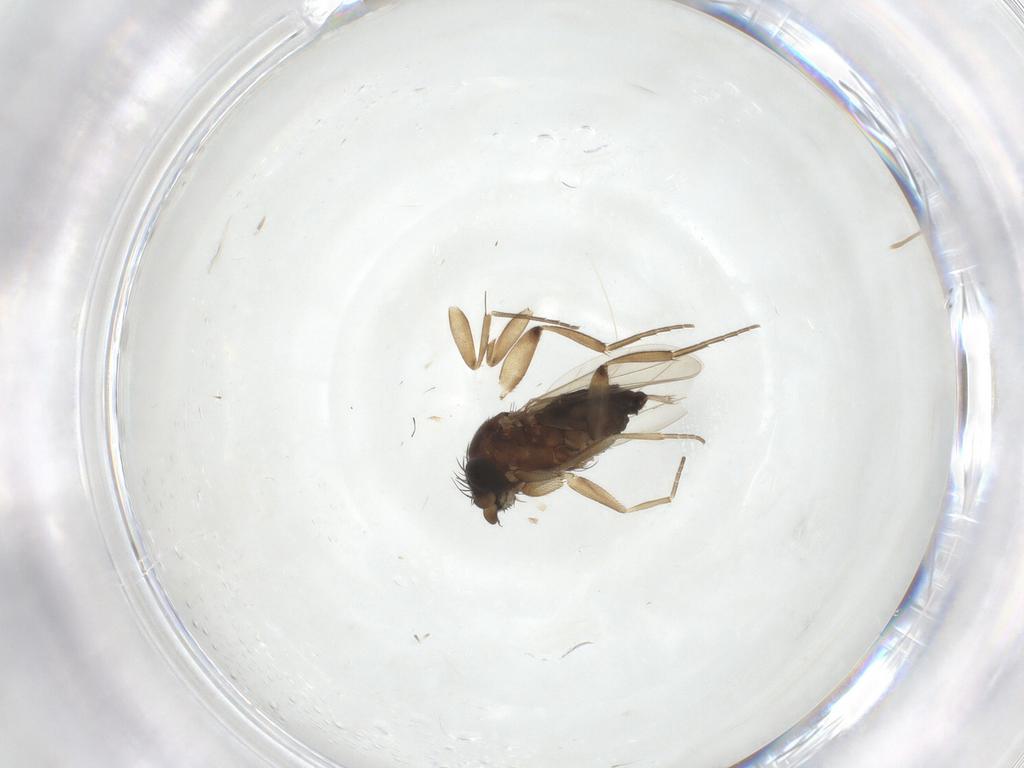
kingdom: Animalia
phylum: Arthropoda
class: Insecta
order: Diptera
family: Phoridae
